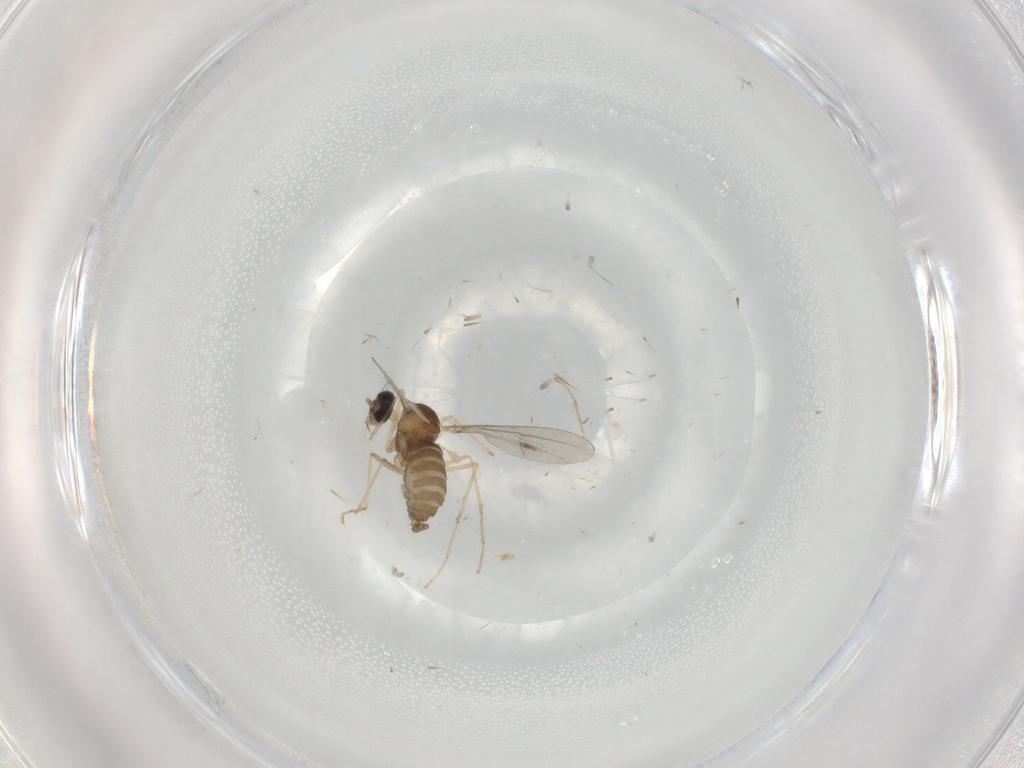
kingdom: Animalia
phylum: Arthropoda
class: Insecta
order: Diptera
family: Cecidomyiidae
